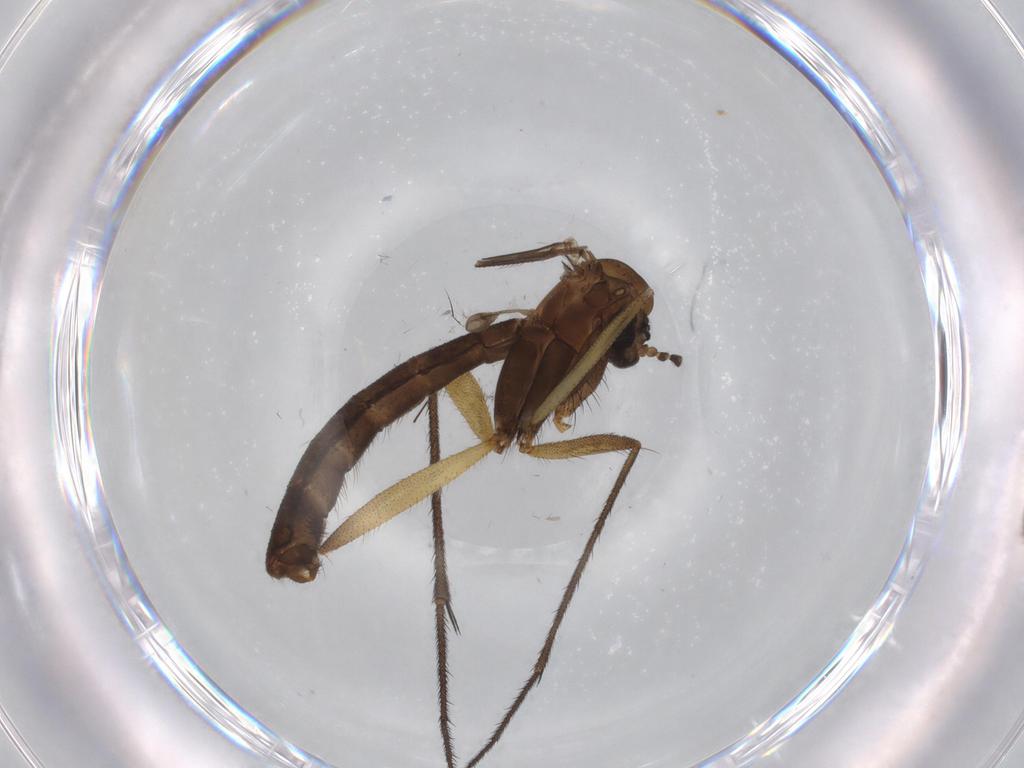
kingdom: Animalia
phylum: Arthropoda
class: Insecta
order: Diptera
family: Ditomyiidae
